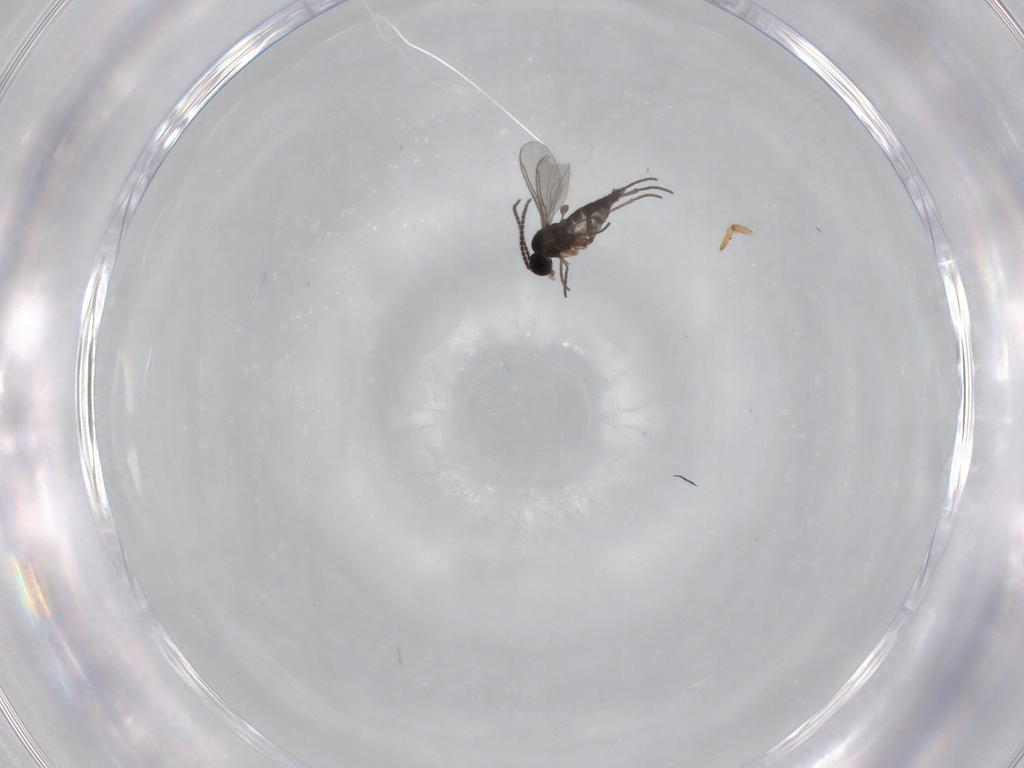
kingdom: Animalia
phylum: Arthropoda
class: Insecta
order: Diptera
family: Sciaridae
